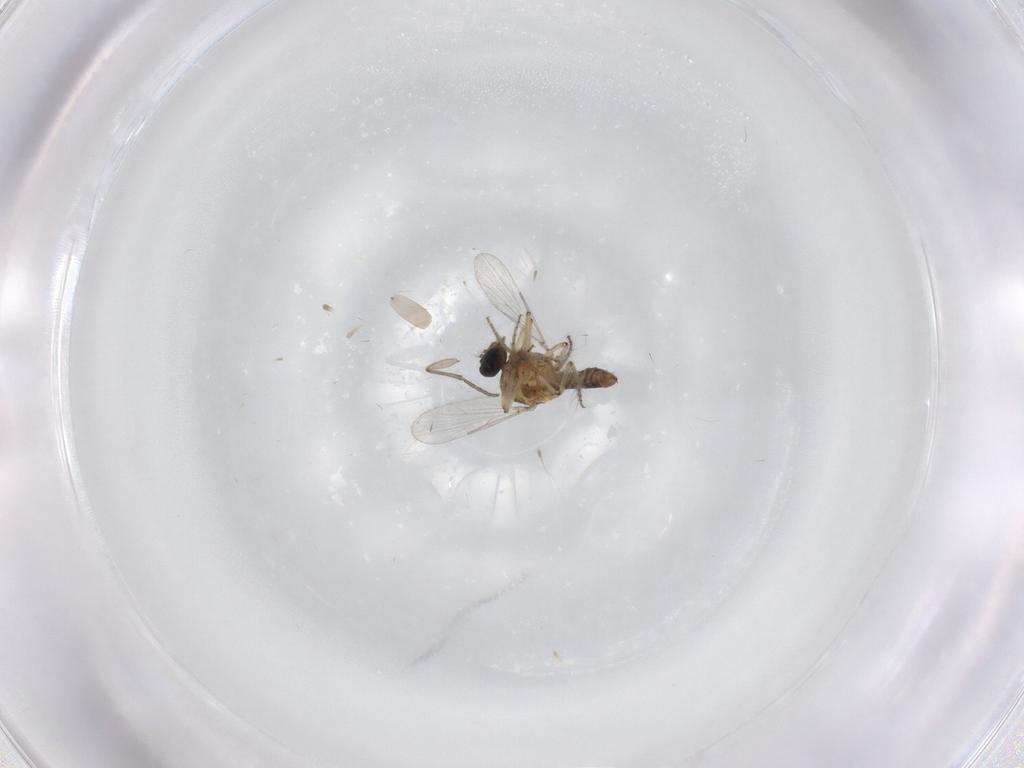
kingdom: Animalia
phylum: Arthropoda
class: Insecta
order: Diptera
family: Ceratopogonidae
